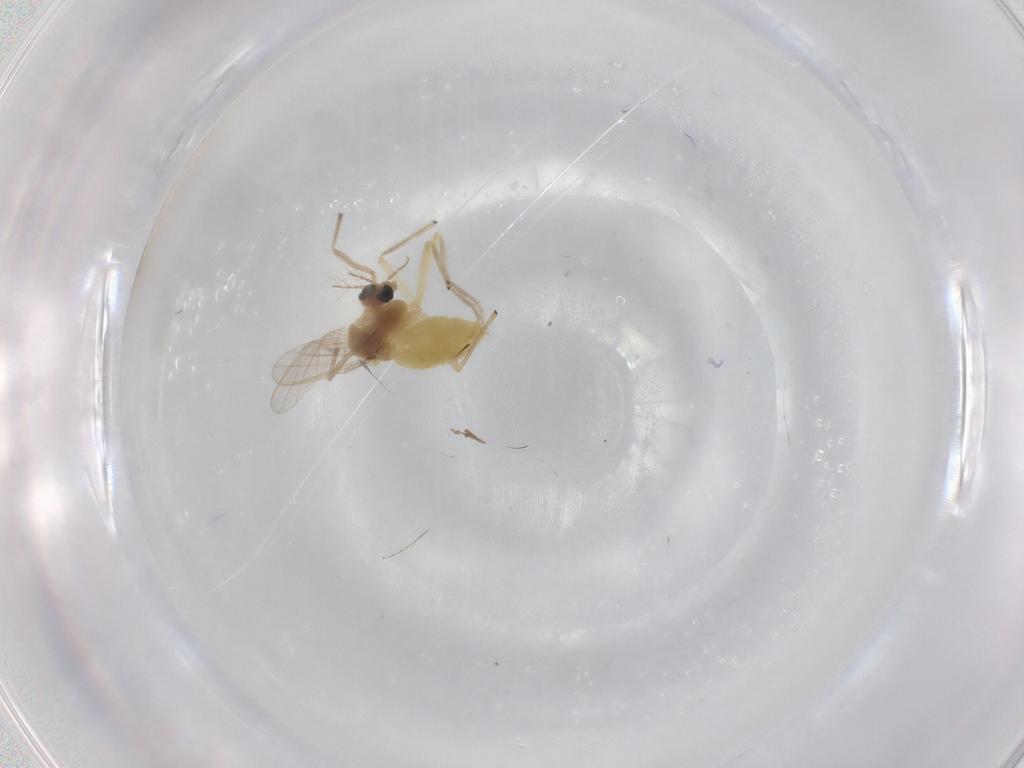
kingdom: Animalia
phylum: Arthropoda
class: Insecta
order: Diptera
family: Chironomidae
